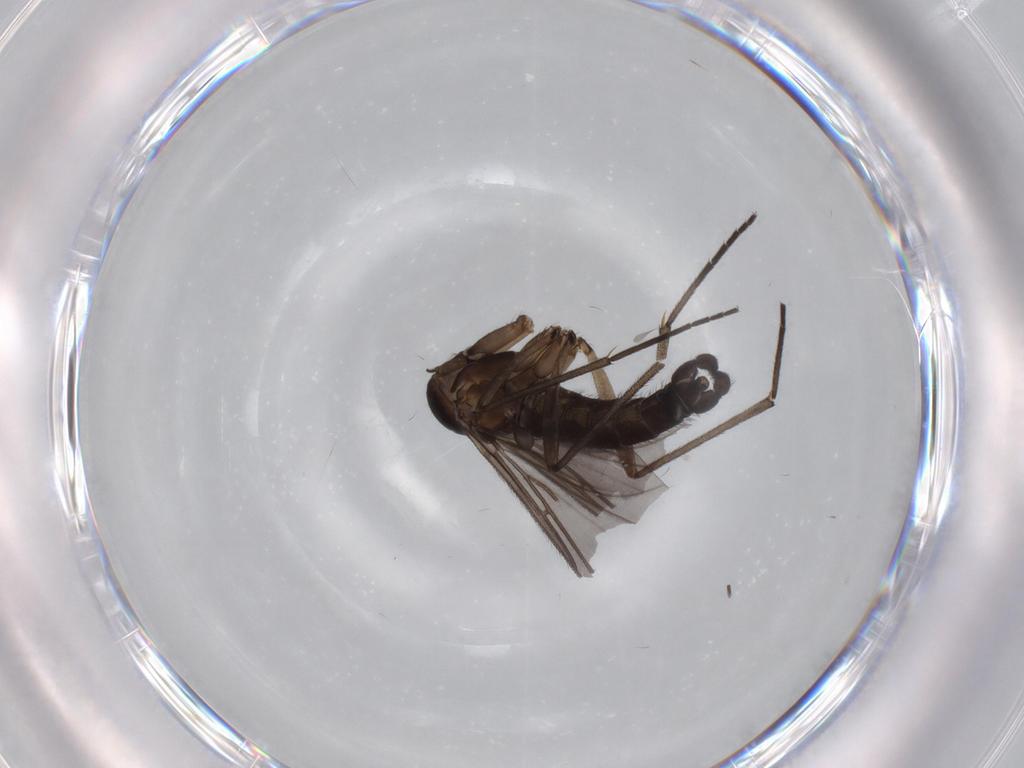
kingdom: Animalia
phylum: Arthropoda
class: Insecta
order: Diptera
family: Sciaridae
